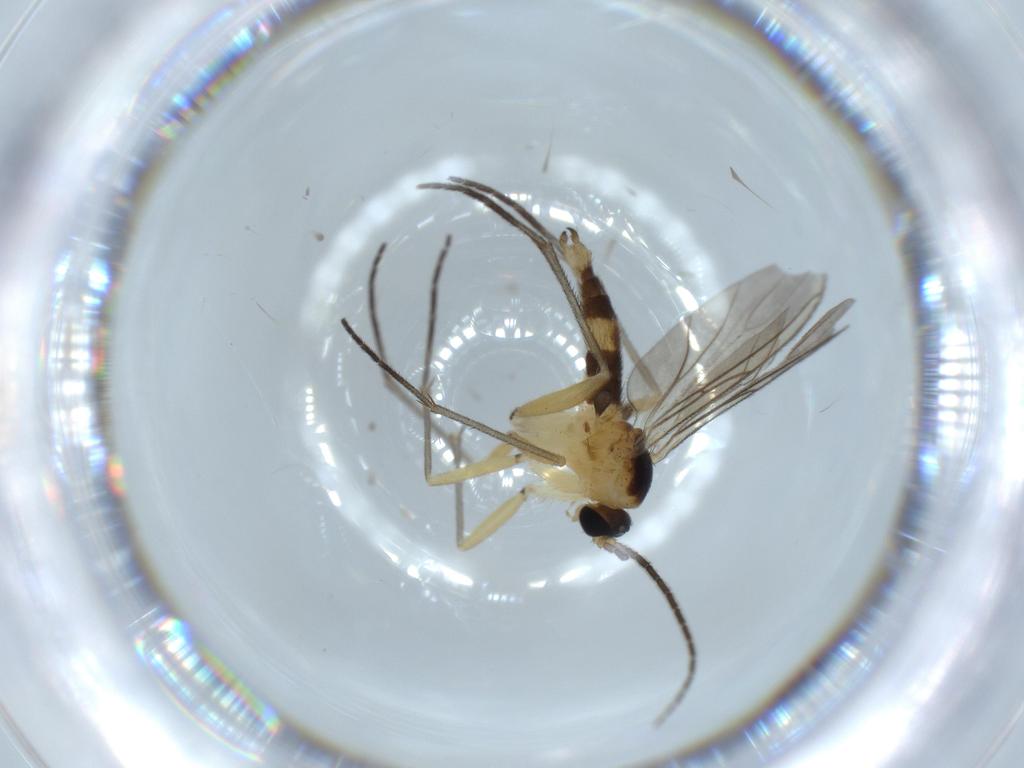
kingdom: Animalia
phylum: Arthropoda
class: Insecta
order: Diptera
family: Sciaridae
